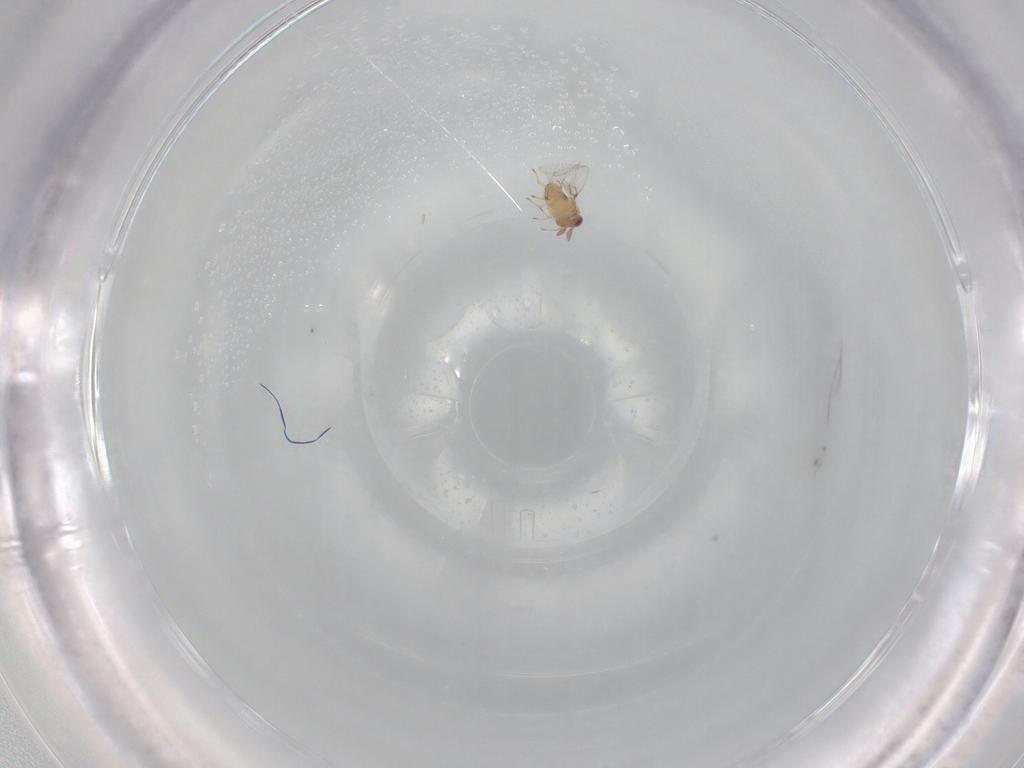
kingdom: Animalia
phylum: Arthropoda
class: Insecta
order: Hymenoptera
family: Trichogrammatidae
